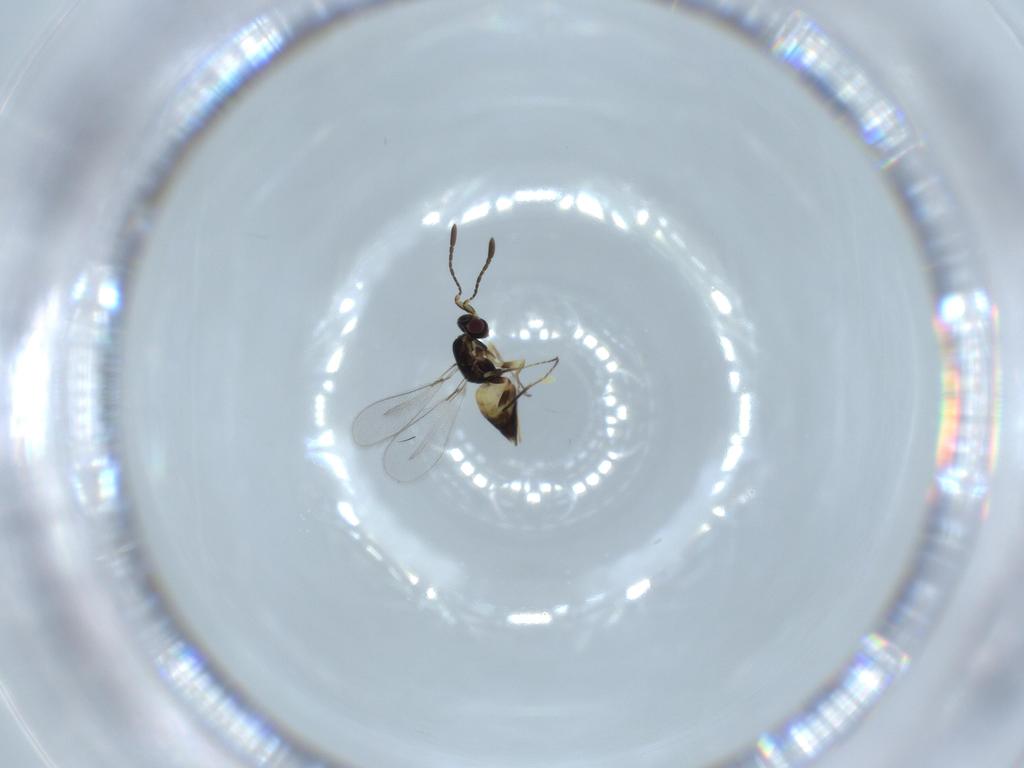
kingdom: Animalia
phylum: Arthropoda
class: Insecta
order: Hymenoptera
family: Mymaridae
